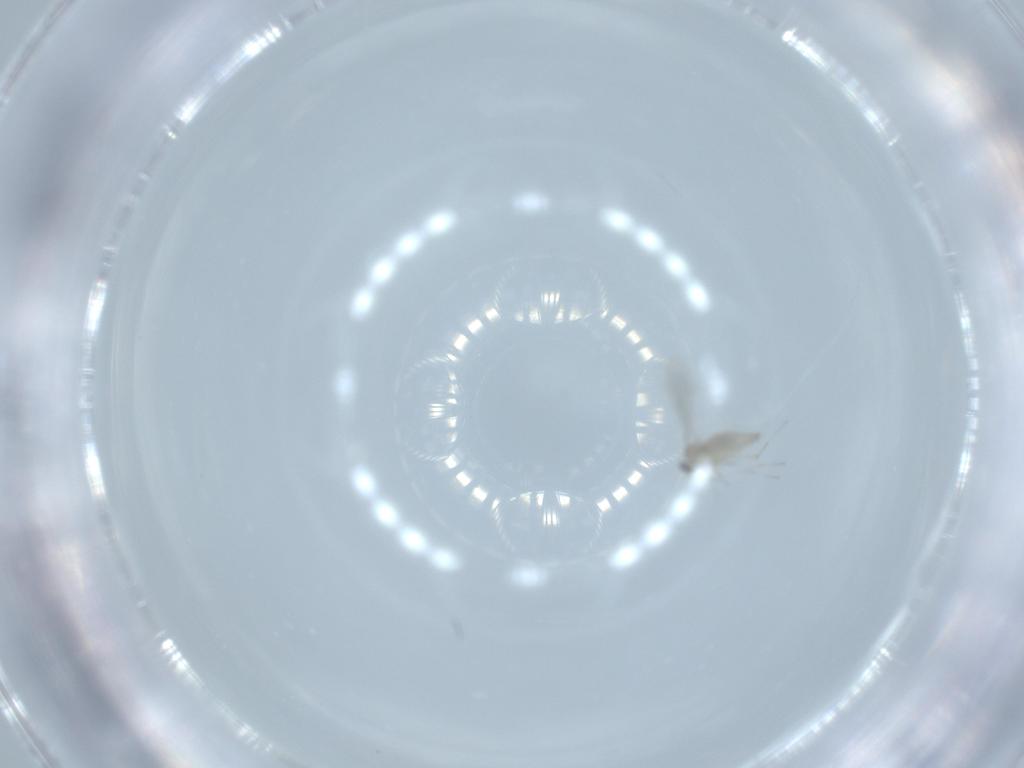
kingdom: Animalia
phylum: Arthropoda
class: Insecta
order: Diptera
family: Cecidomyiidae
